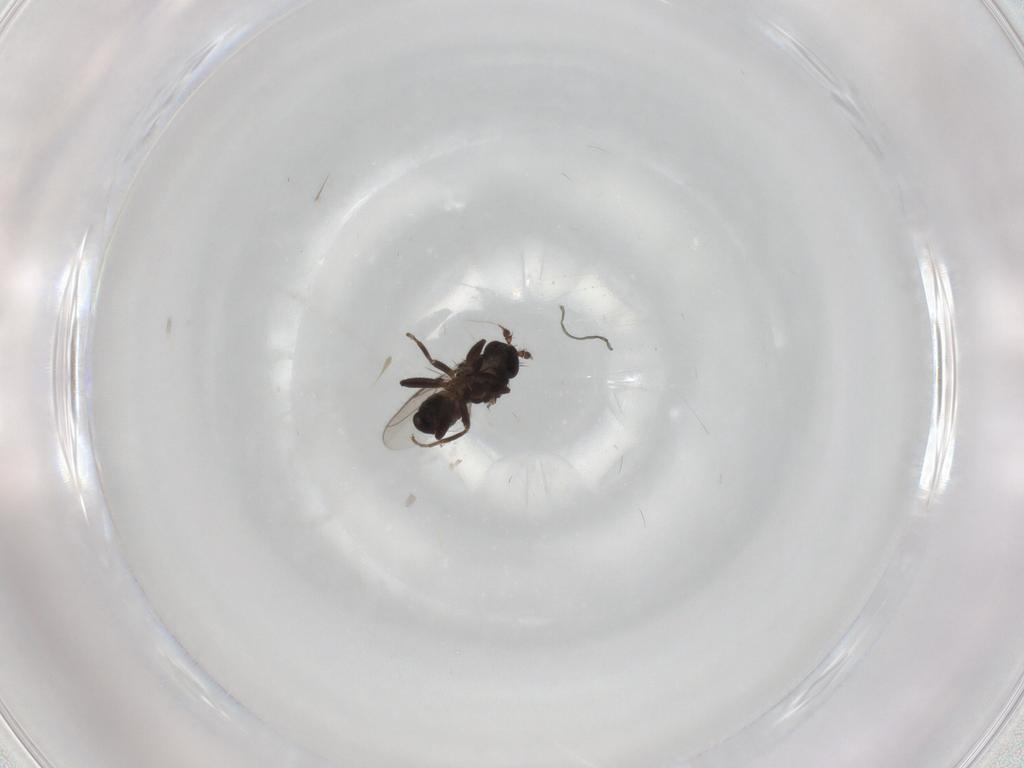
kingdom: Animalia
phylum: Arthropoda
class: Insecta
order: Diptera
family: Sphaeroceridae
